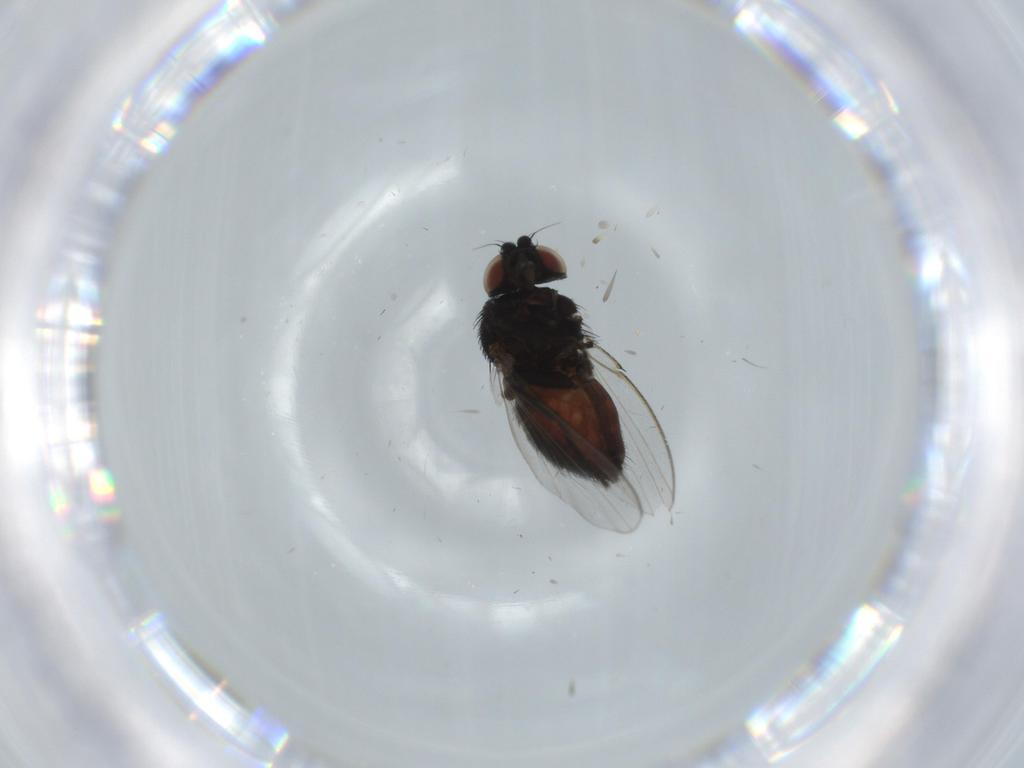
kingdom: Animalia
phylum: Arthropoda
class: Insecta
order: Diptera
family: Milichiidae
